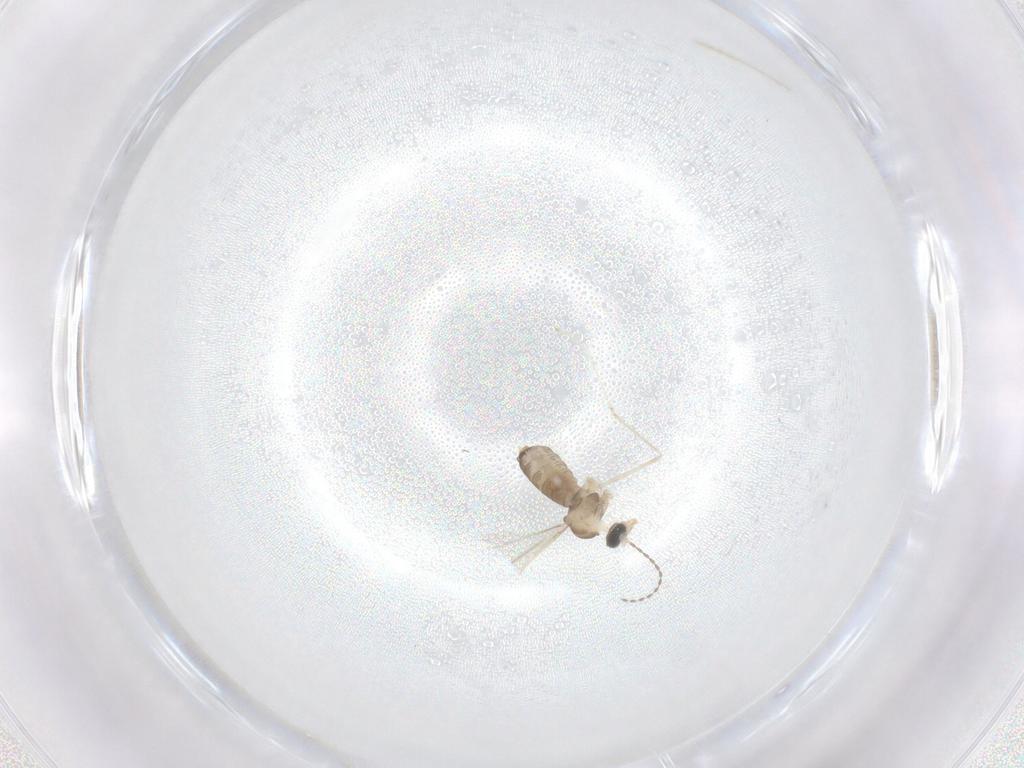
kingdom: Animalia
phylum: Arthropoda
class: Insecta
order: Diptera
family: Cecidomyiidae
